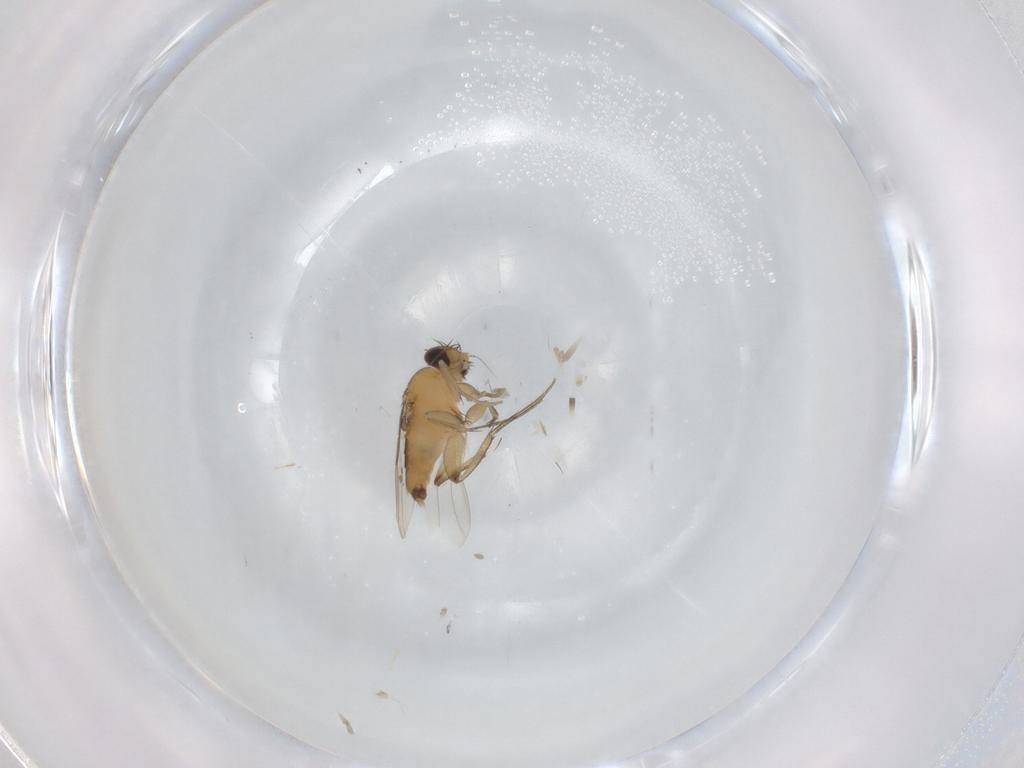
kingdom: Animalia
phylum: Arthropoda
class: Insecta
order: Diptera
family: Phoridae
